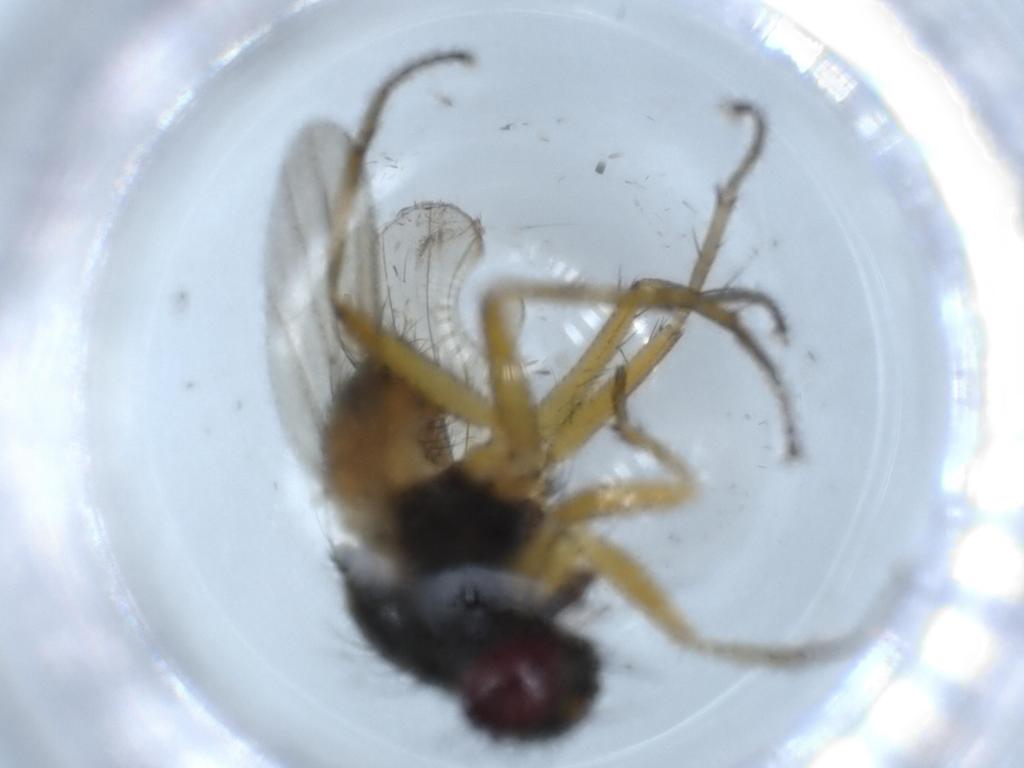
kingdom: Animalia
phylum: Arthropoda
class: Insecta
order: Diptera
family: Muscidae
